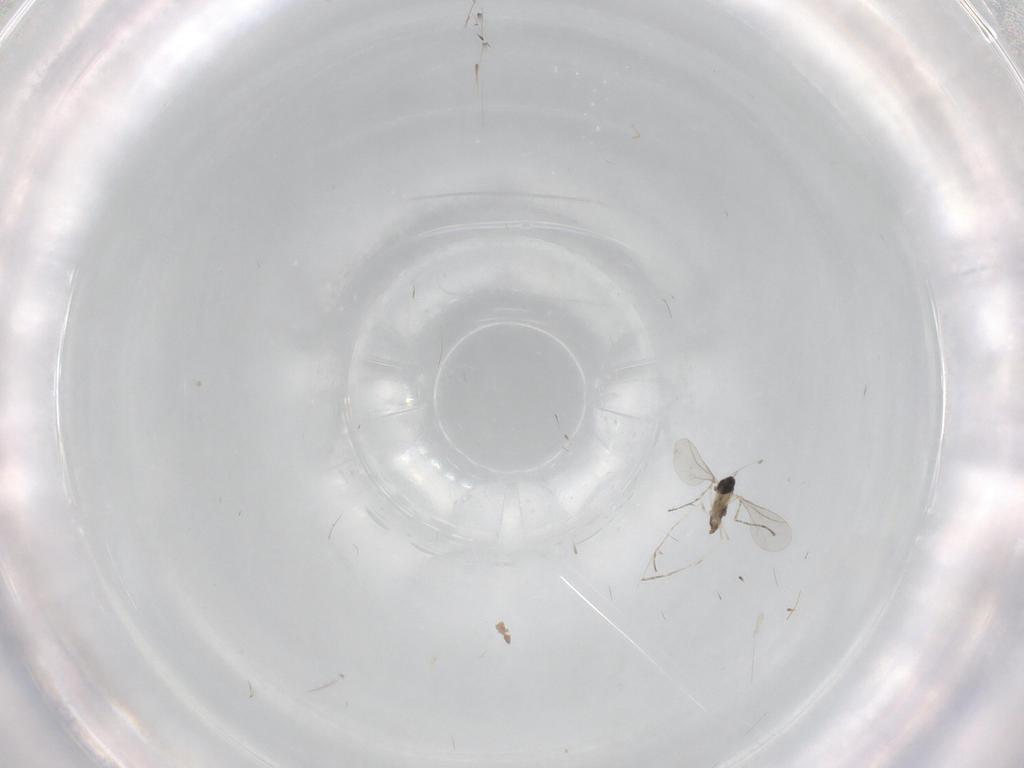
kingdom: Animalia
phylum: Arthropoda
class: Insecta
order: Diptera
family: Cecidomyiidae
